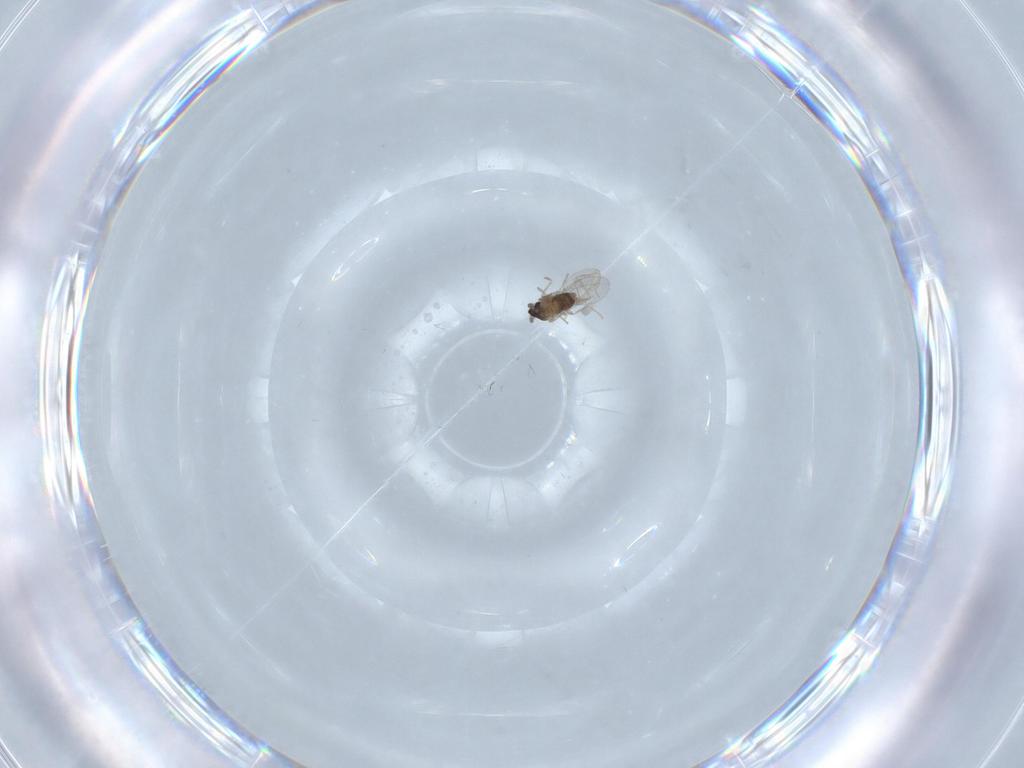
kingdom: Animalia
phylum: Arthropoda
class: Insecta
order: Diptera
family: Cecidomyiidae
